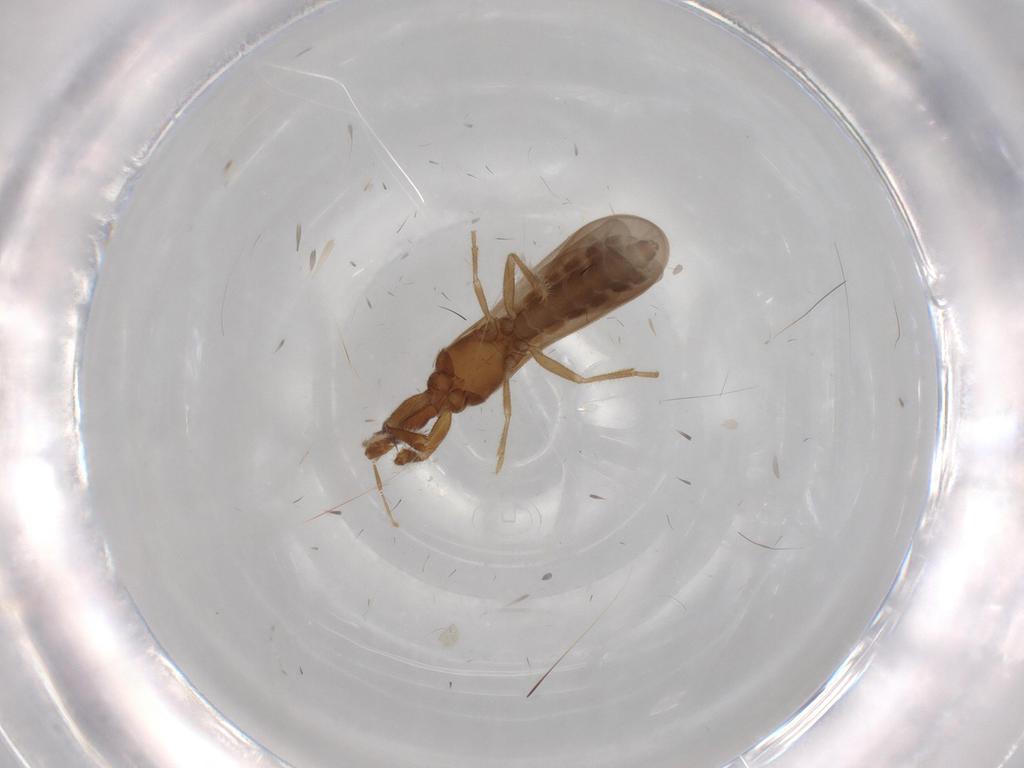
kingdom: Animalia
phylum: Arthropoda
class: Insecta
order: Hemiptera
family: Enicocephalidae
